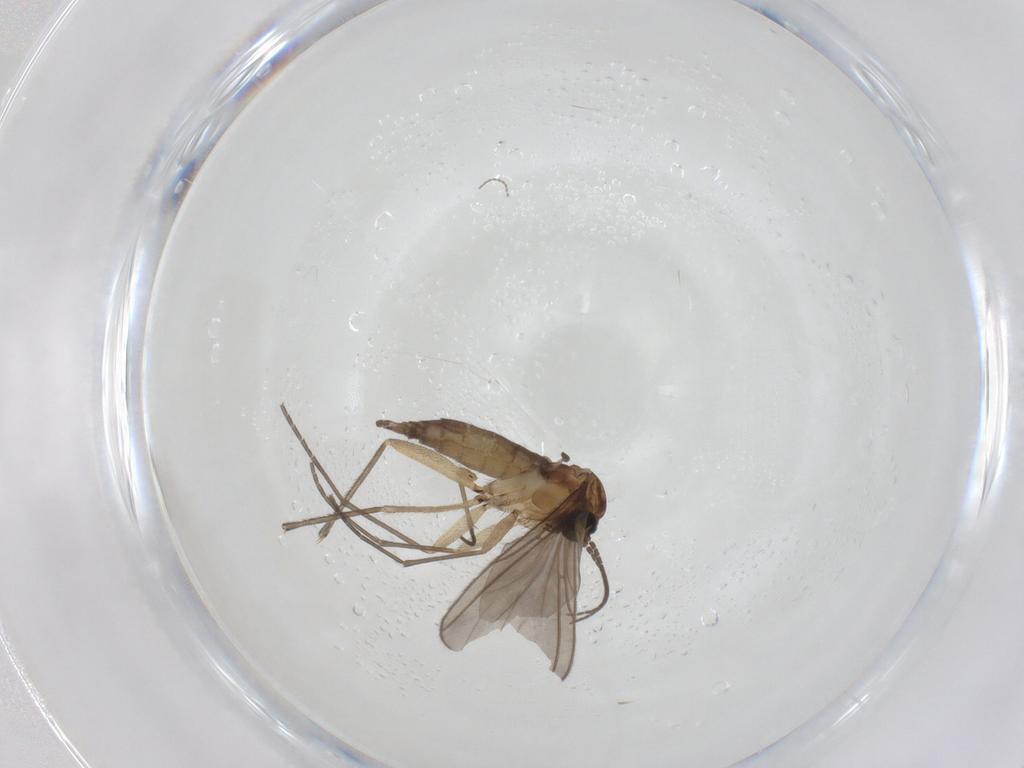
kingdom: Animalia
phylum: Arthropoda
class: Insecta
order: Diptera
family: Sciaridae
